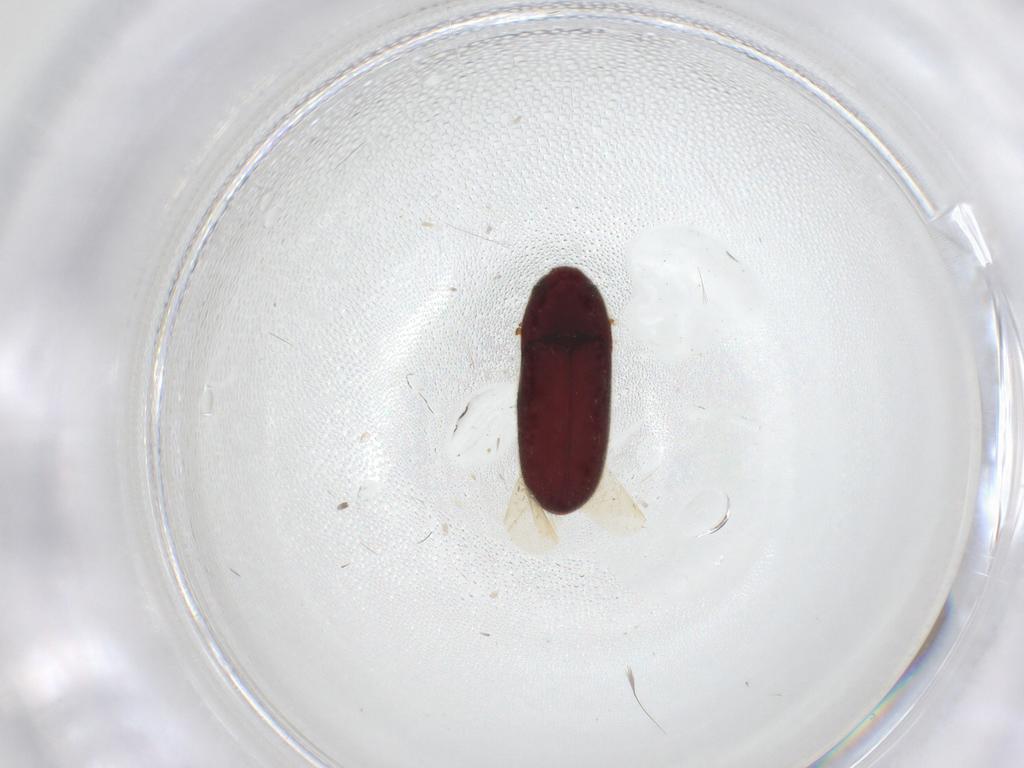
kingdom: Animalia
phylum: Arthropoda
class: Insecta
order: Coleoptera
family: Throscidae
